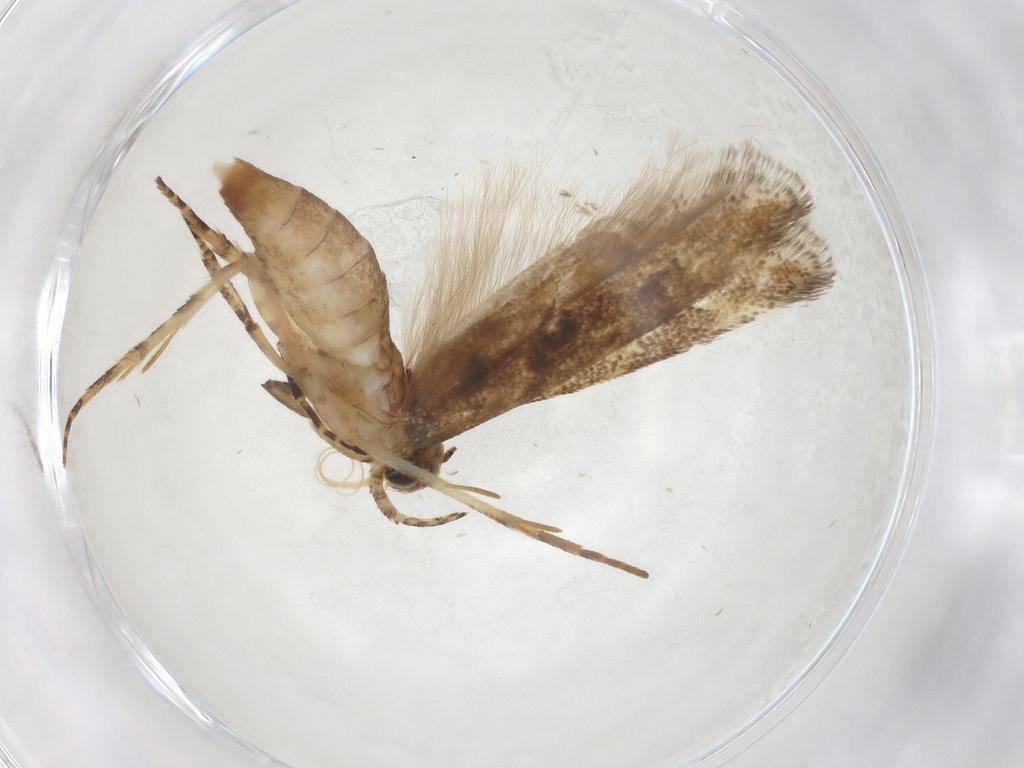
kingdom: Animalia
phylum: Arthropoda
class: Insecta
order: Lepidoptera
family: Gelechiidae
